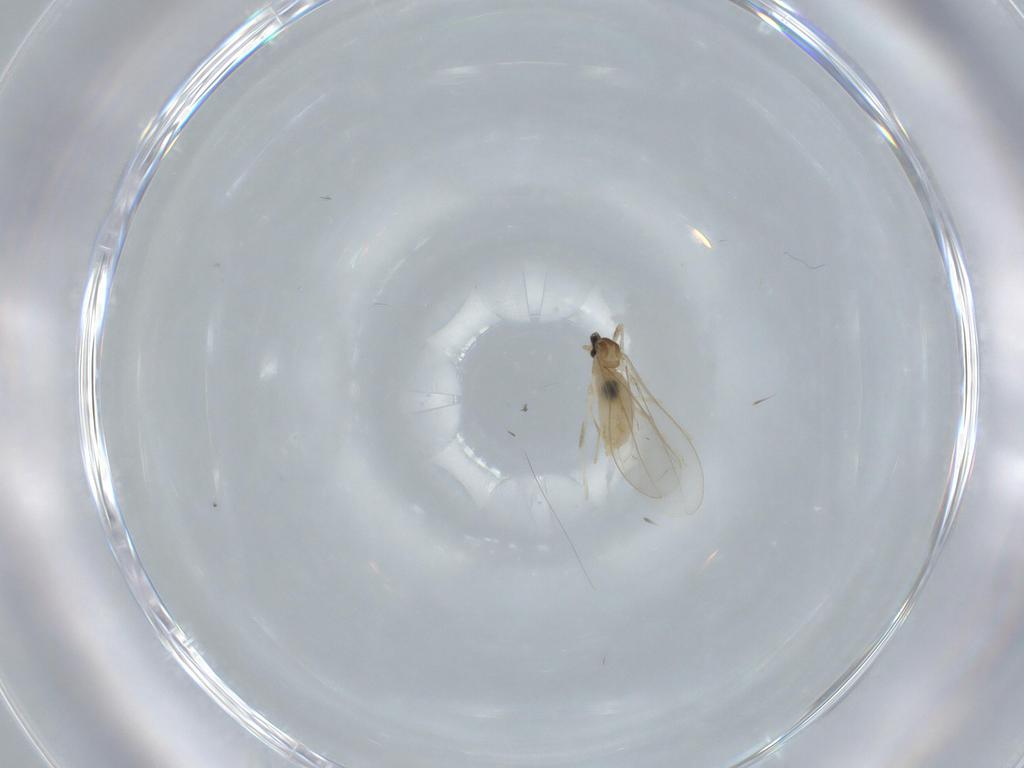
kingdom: Animalia
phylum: Arthropoda
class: Insecta
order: Diptera
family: Cecidomyiidae
